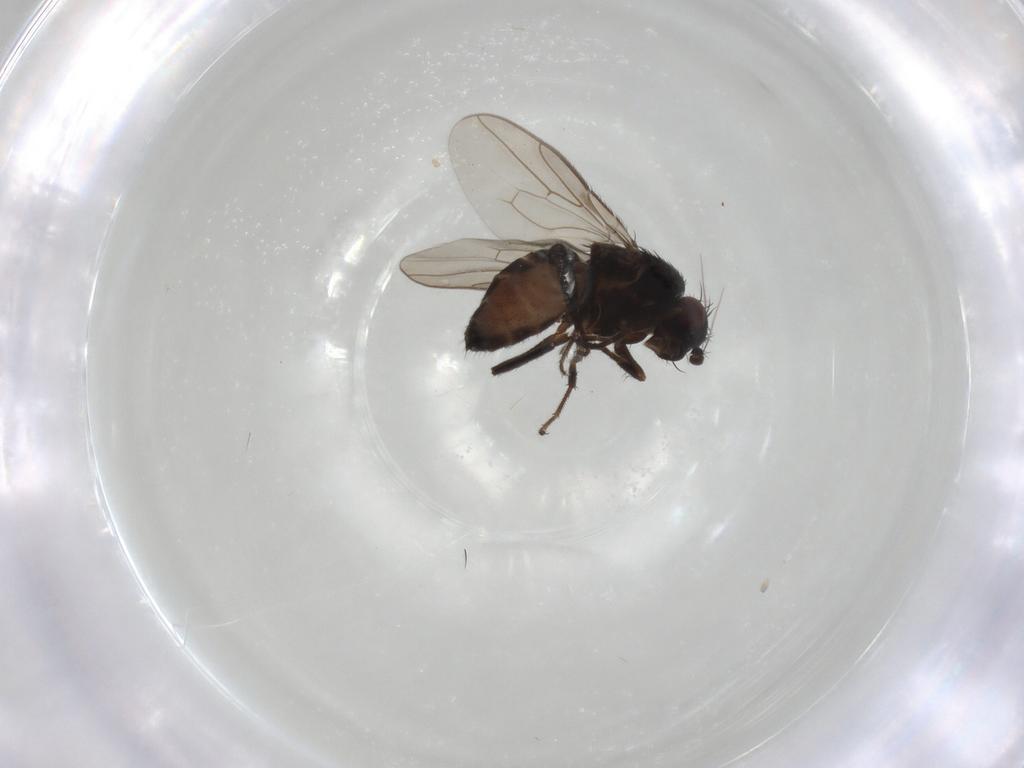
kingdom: Animalia
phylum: Arthropoda
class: Insecta
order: Diptera
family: Sphaeroceridae
